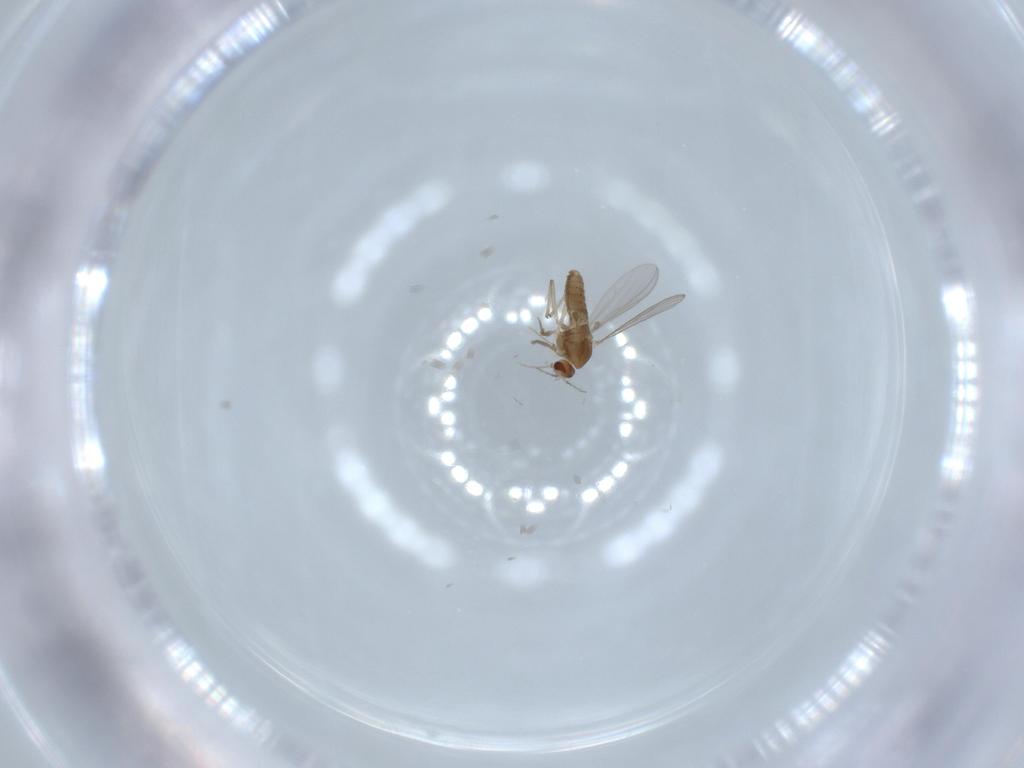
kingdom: Animalia
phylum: Arthropoda
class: Insecta
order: Diptera
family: Chironomidae
